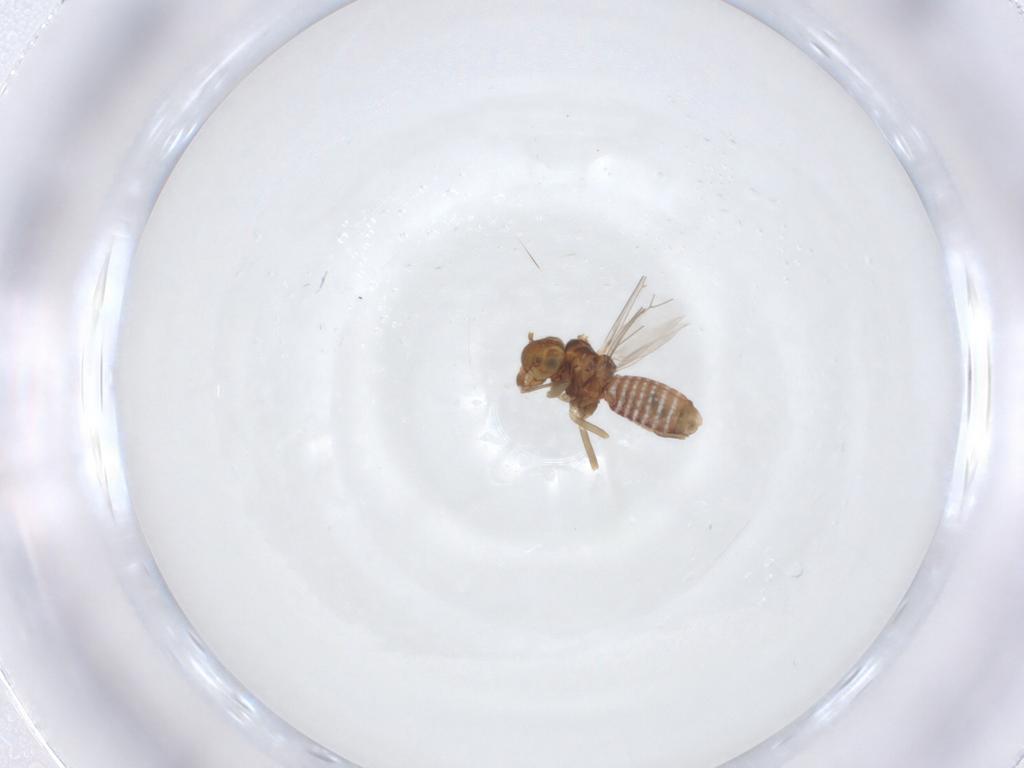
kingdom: Animalia
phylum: Arthropoda
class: Insecta
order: Psocodea
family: Lachesillidae
